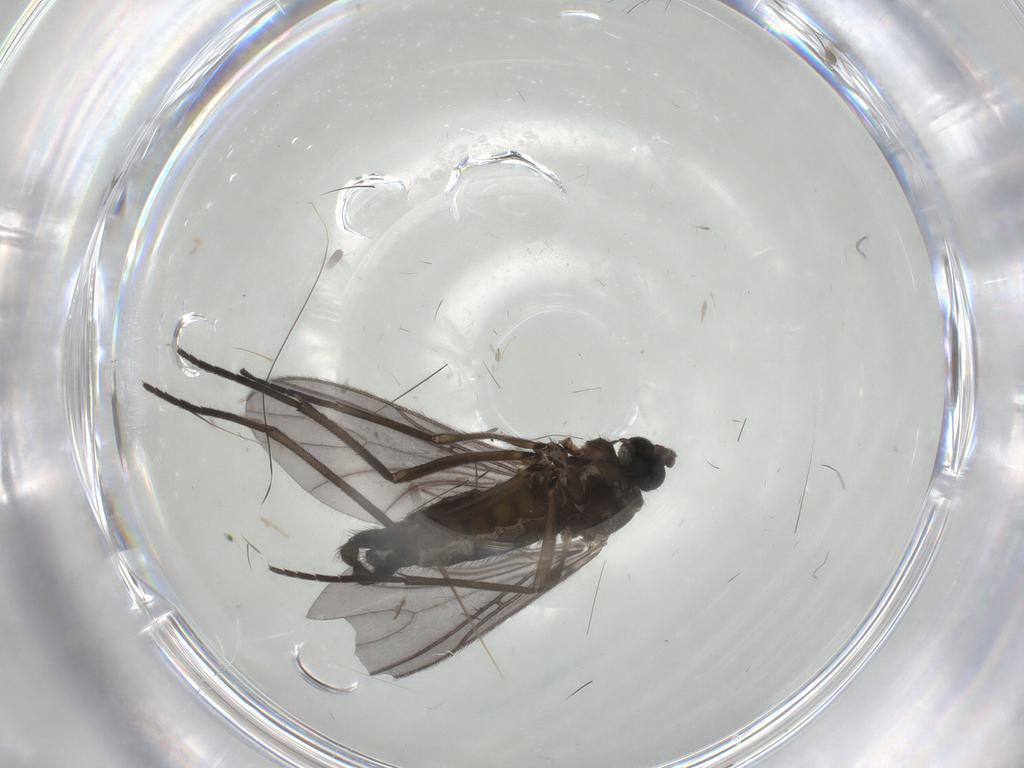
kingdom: Animalia
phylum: Arthropoda
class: Insecta
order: Diptera
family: Sciaridae
